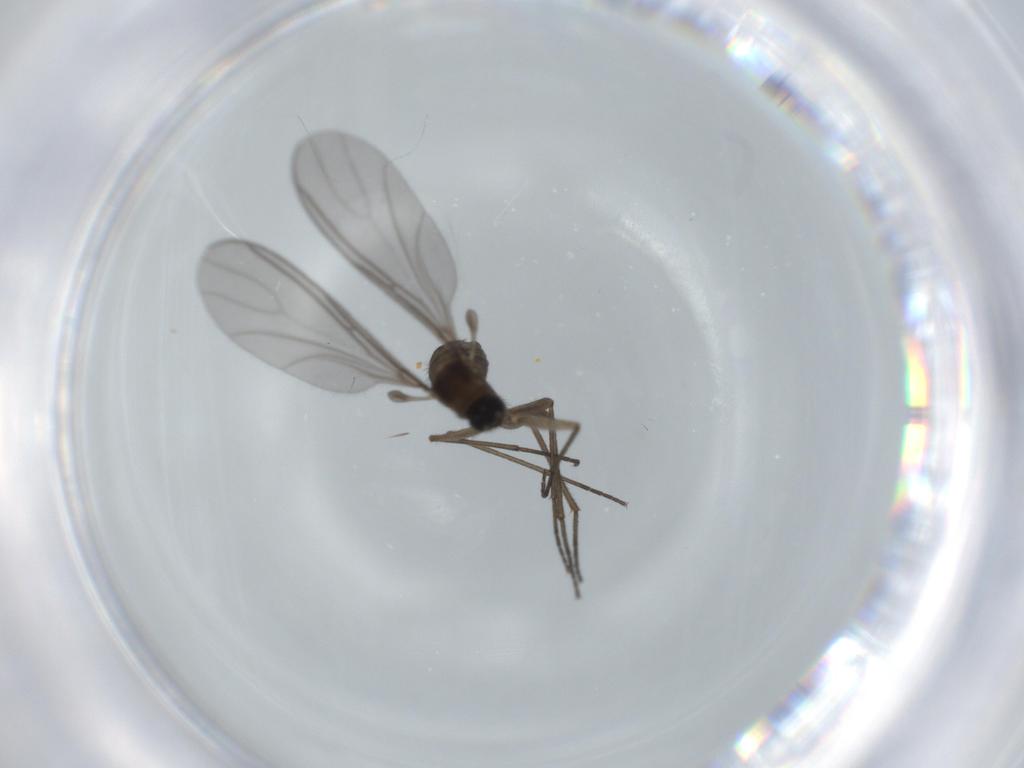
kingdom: Animalia
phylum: Arthropoda
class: Insecta
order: Diptera
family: Sciaridae
